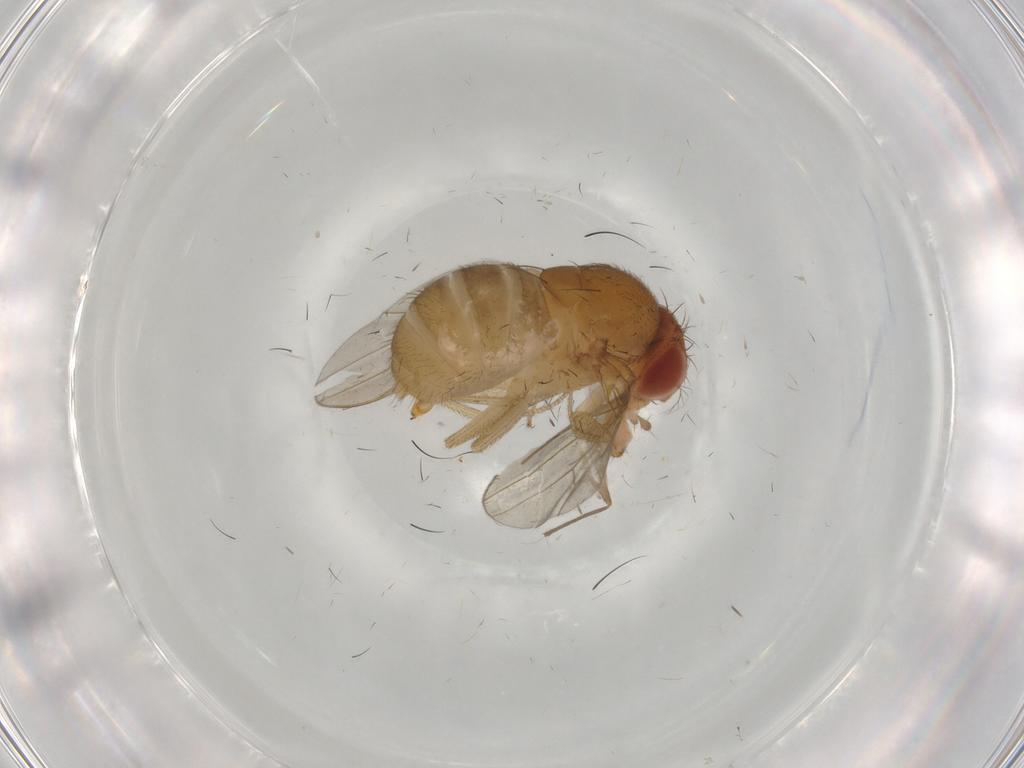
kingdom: Animalia
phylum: Arthropoda
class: Insecta
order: Diptera
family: Drosophilidae
